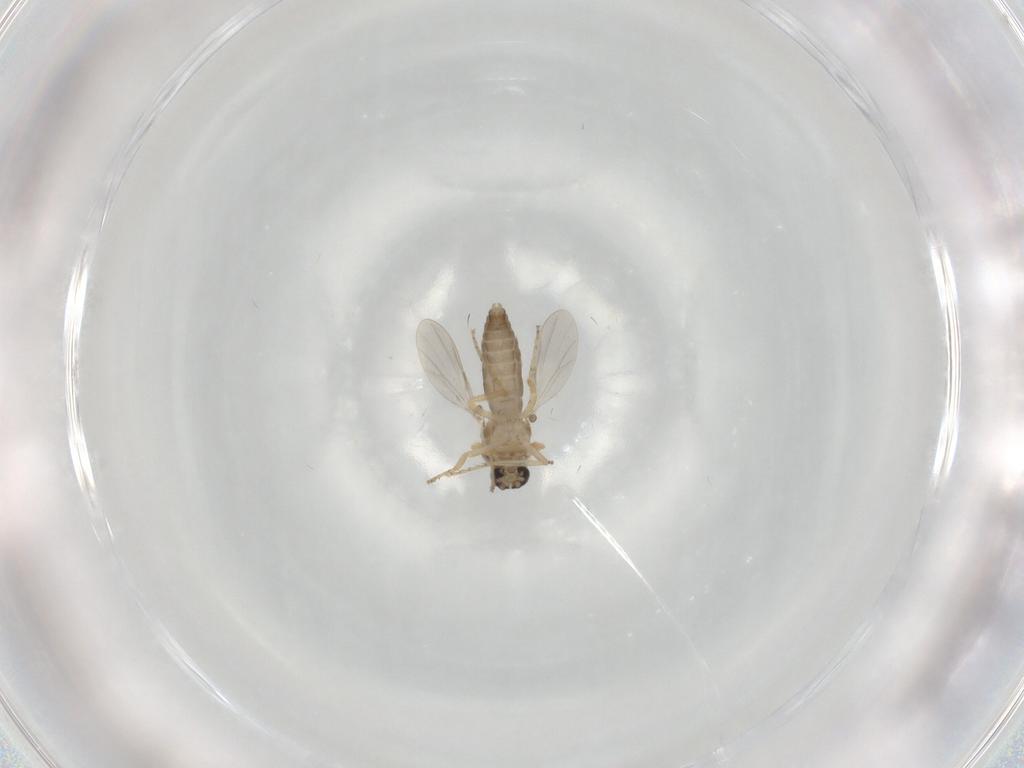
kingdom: Animalia
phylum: Arthropoda
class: Insecta
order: Diptera
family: Ceratopogonidae
